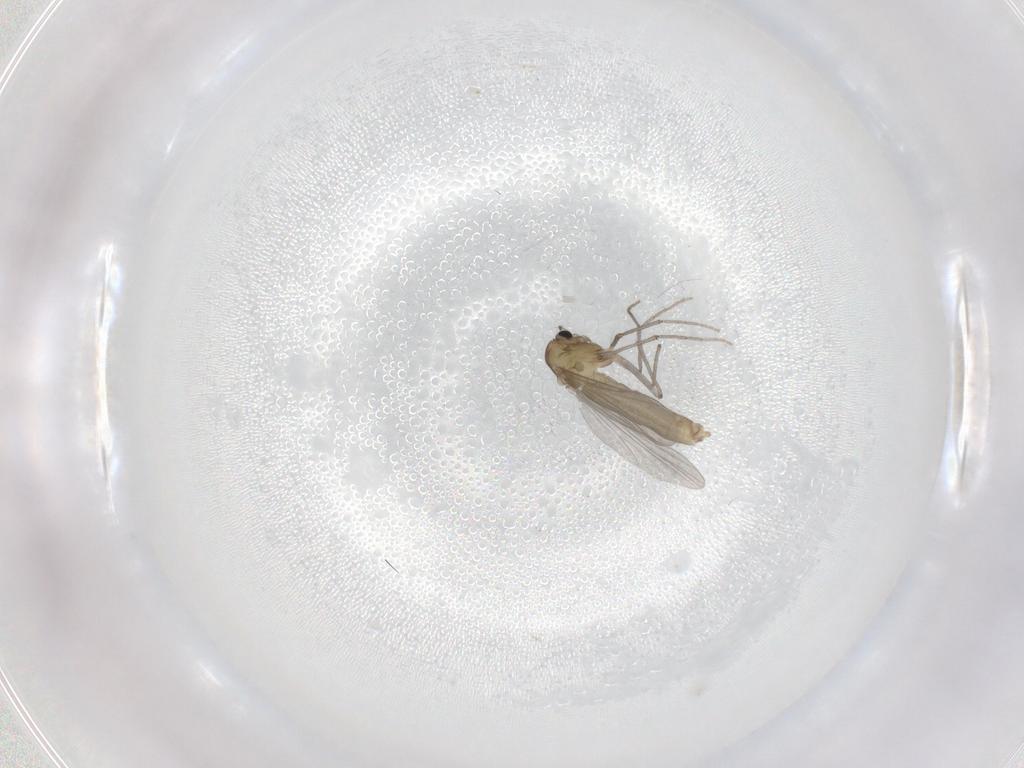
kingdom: Animalia
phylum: Arthropoda
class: Insecta
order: Diptera
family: Chironomidae
